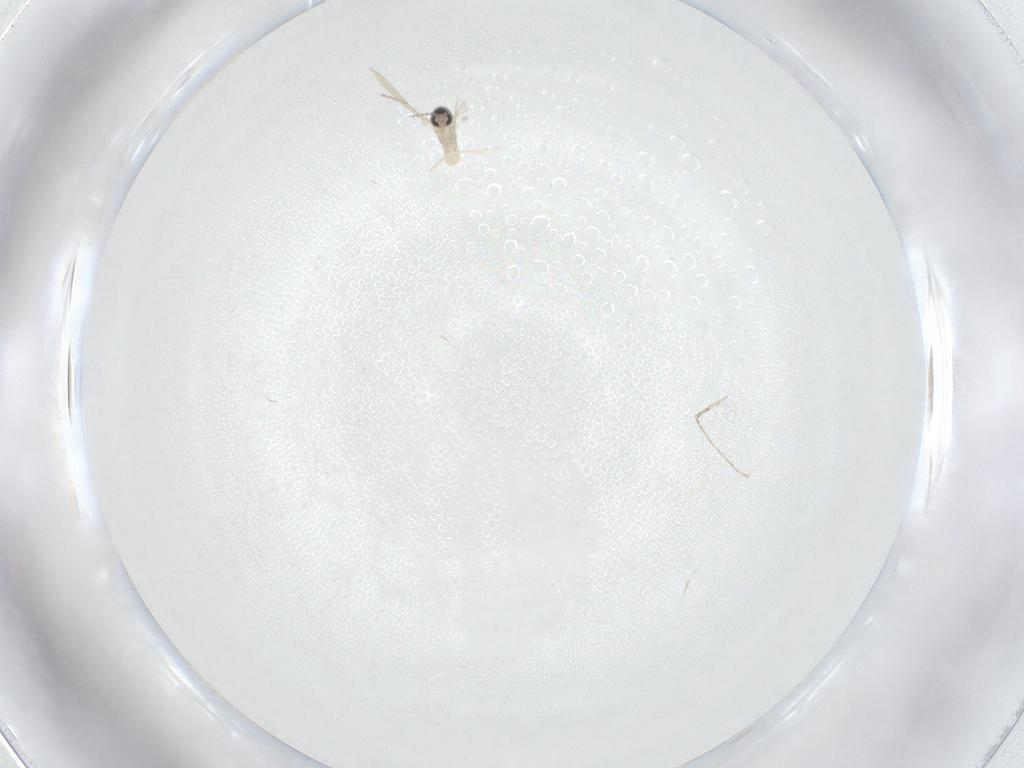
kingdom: Animalia
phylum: Arthropoda
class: Insecta
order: Diptera
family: Cecidomyiidae
